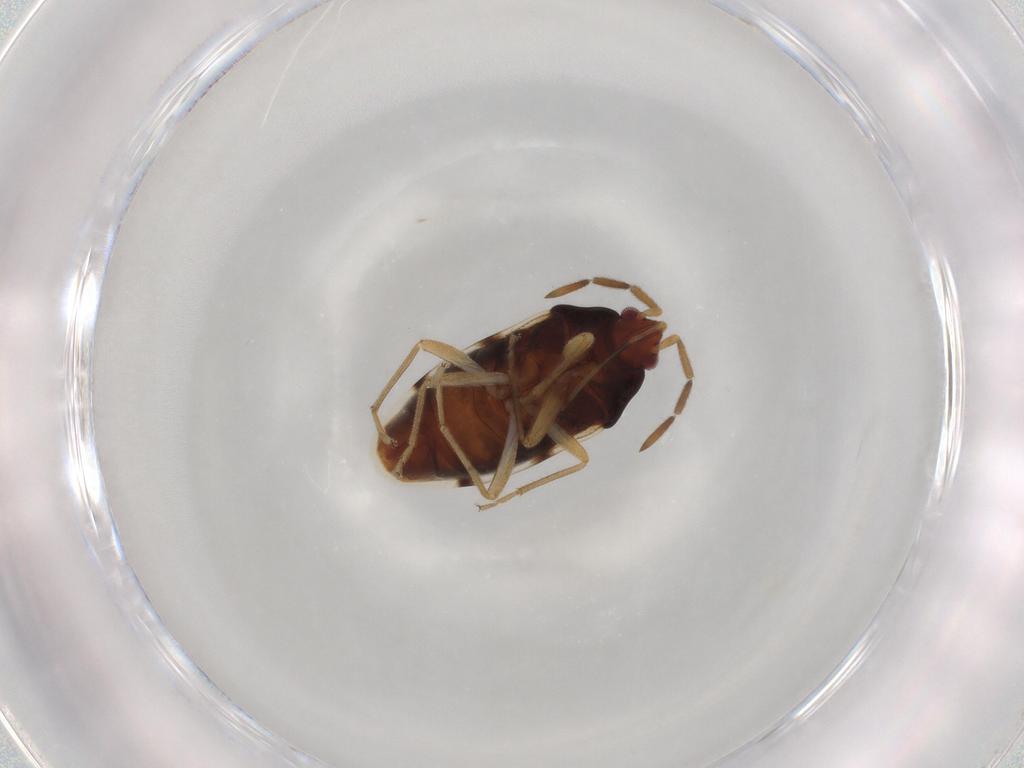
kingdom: Animalia
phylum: Arthropoda
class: Insecta
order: Hemiptera
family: Rhyparochromidae
